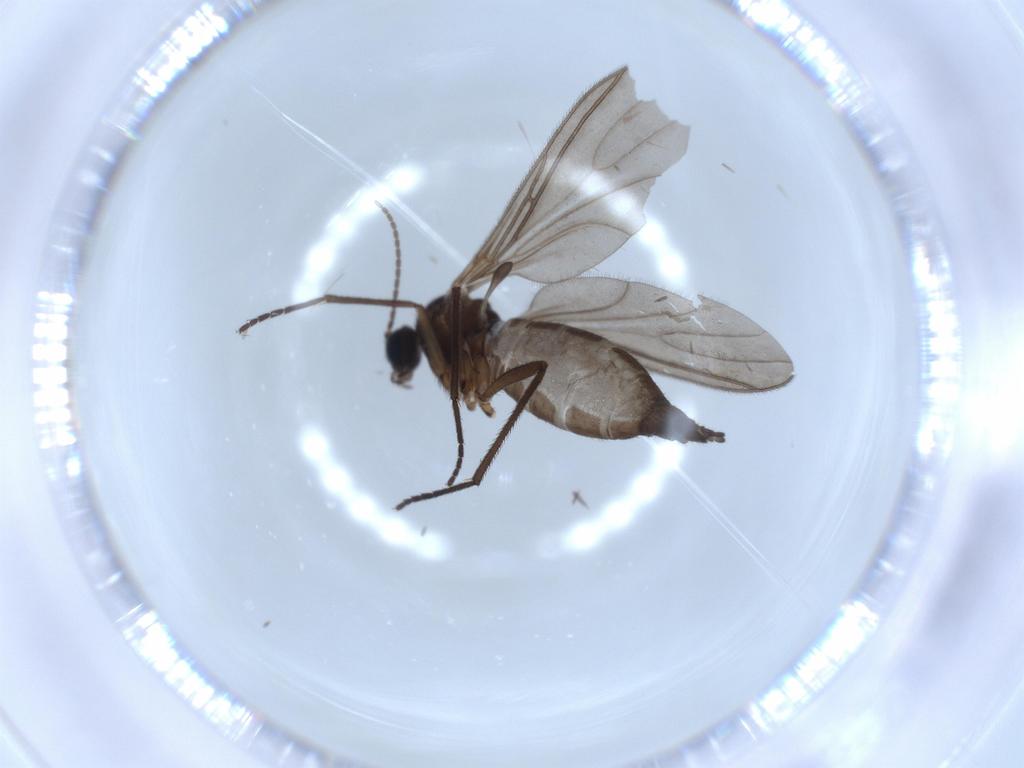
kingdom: Animalia
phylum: Arthropoda
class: Insecta
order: Diptera
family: Sciaridae
